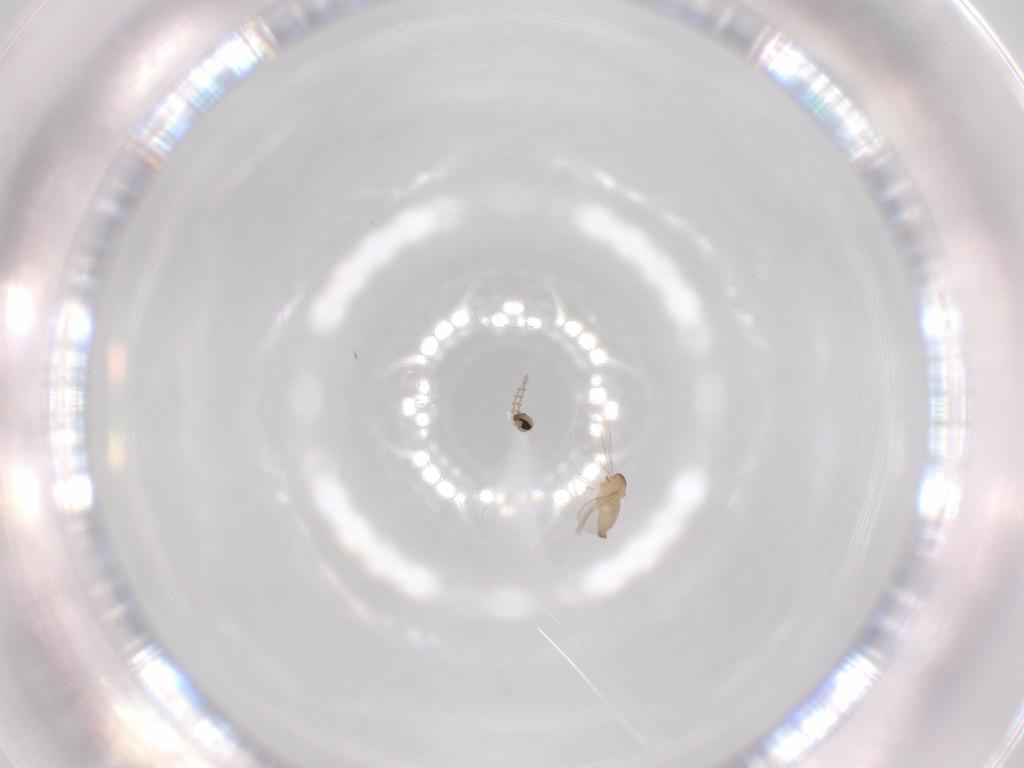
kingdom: Animalia
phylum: Arthropoda
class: Insecta
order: Diptera
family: Cecidomyiidae
